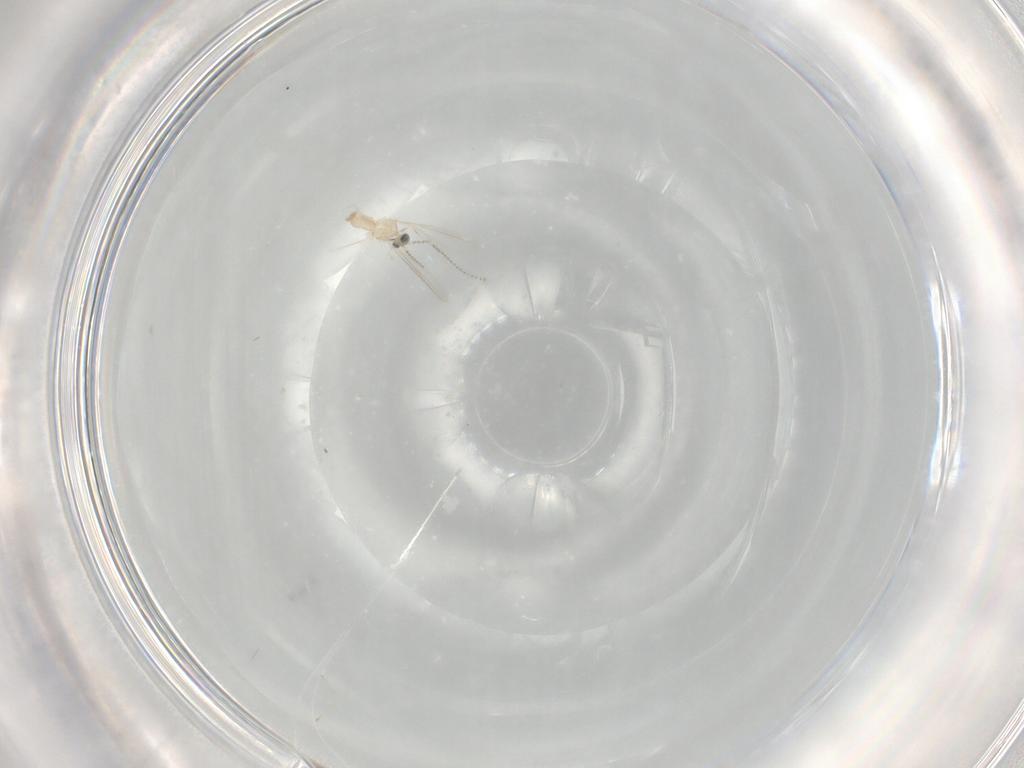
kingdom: Animalia
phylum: Arthropoda
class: Insecta
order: Diptera
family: Cecidomyiidae
